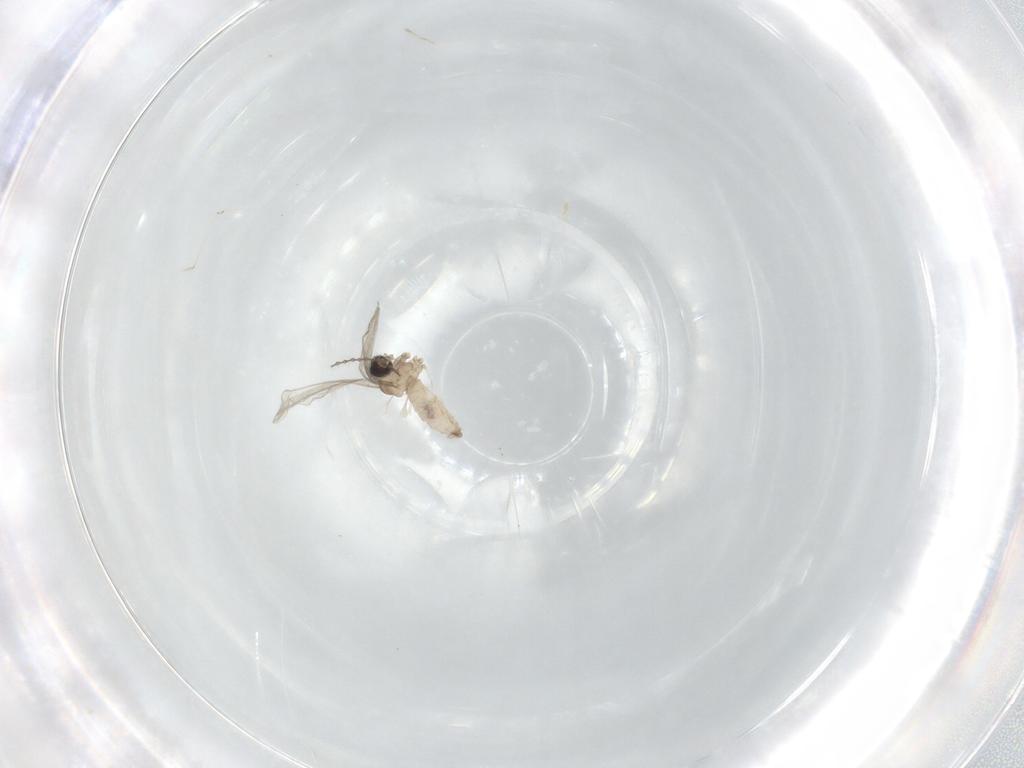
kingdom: Animalia
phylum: Arthropoda
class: Insecta
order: Diptera
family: Cecidomyiidae
